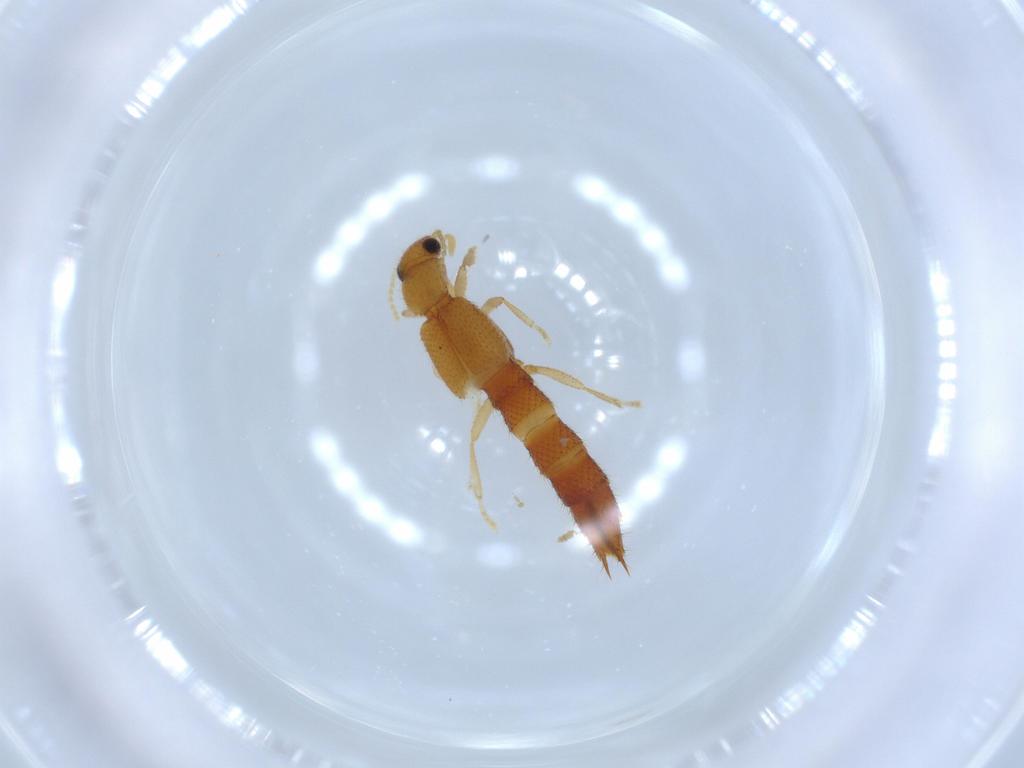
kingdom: Animalia
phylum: Arthropoda
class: Insecta
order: Coleoptera
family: Staphylinidae
